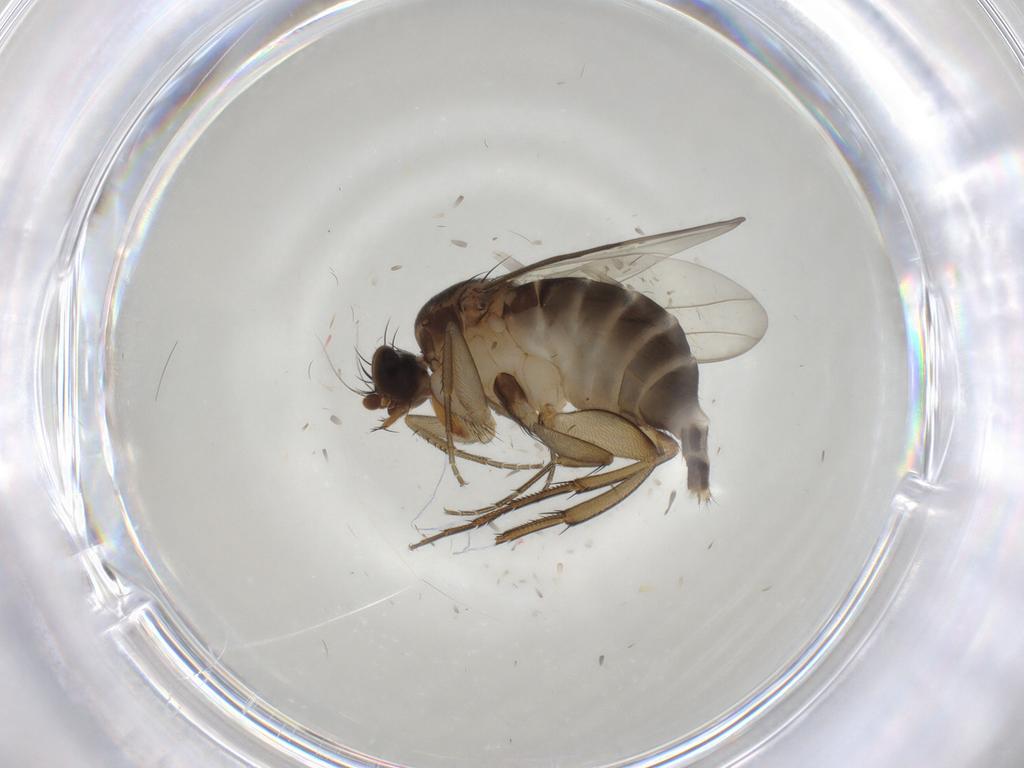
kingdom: Animalia
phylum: Arthropoda
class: Insecta
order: Diptera
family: Phoridae
